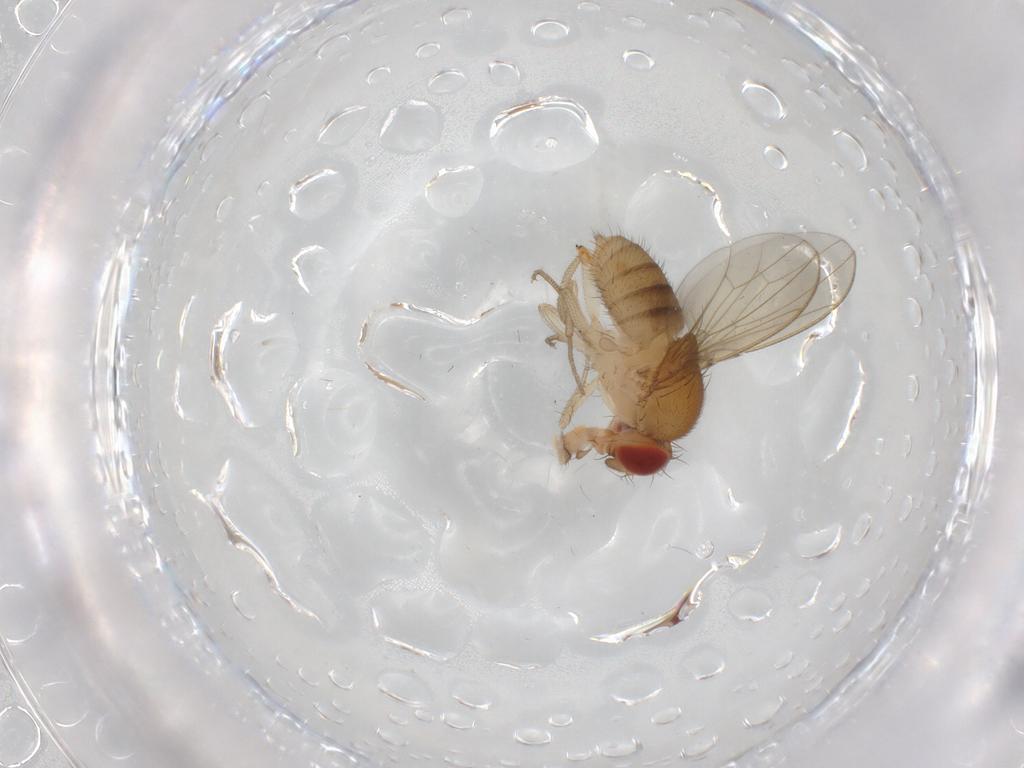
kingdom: Animalia
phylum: Arthropoda
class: Insecta
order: Diptera
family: Drosophilidae
